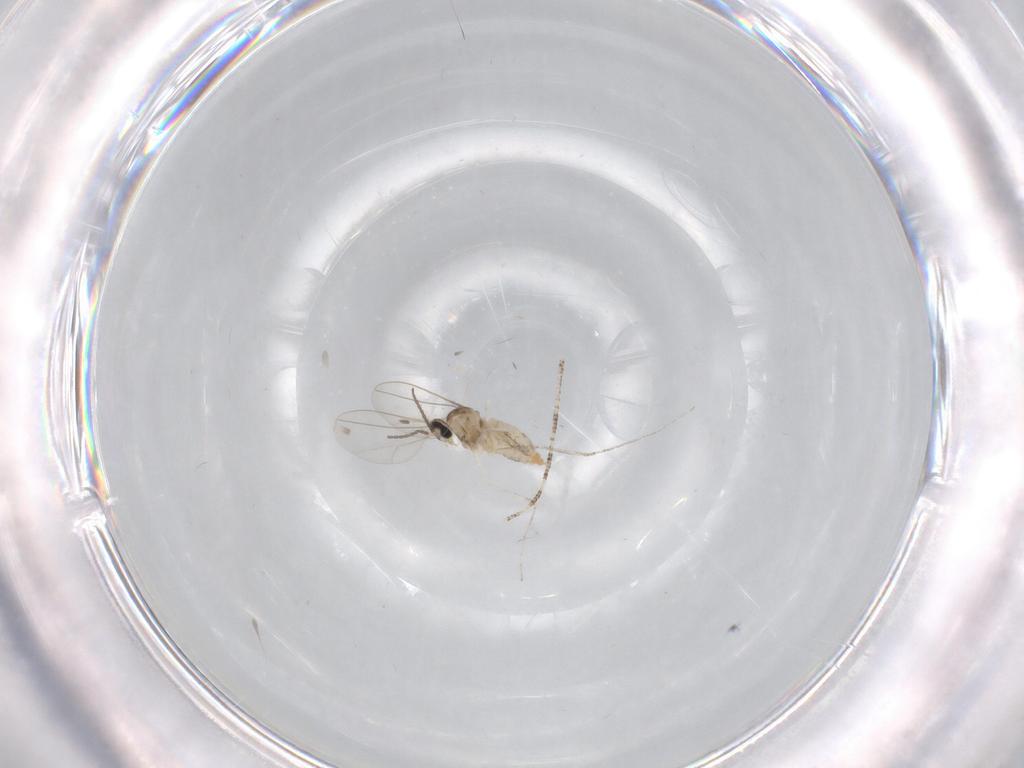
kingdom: Animalia
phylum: Arthropoda
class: Insecta
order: Diptera
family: Cecidomyiidae
